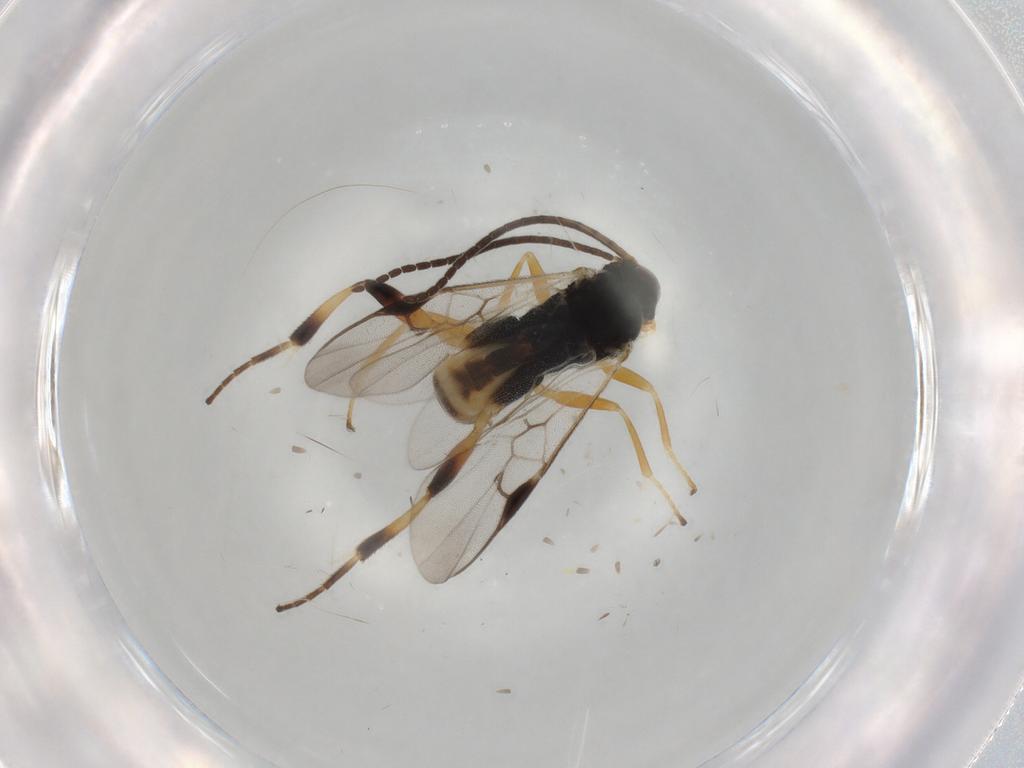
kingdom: Animalia
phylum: Arthropoda
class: Insecta
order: Hymenoptera
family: Braconidae
